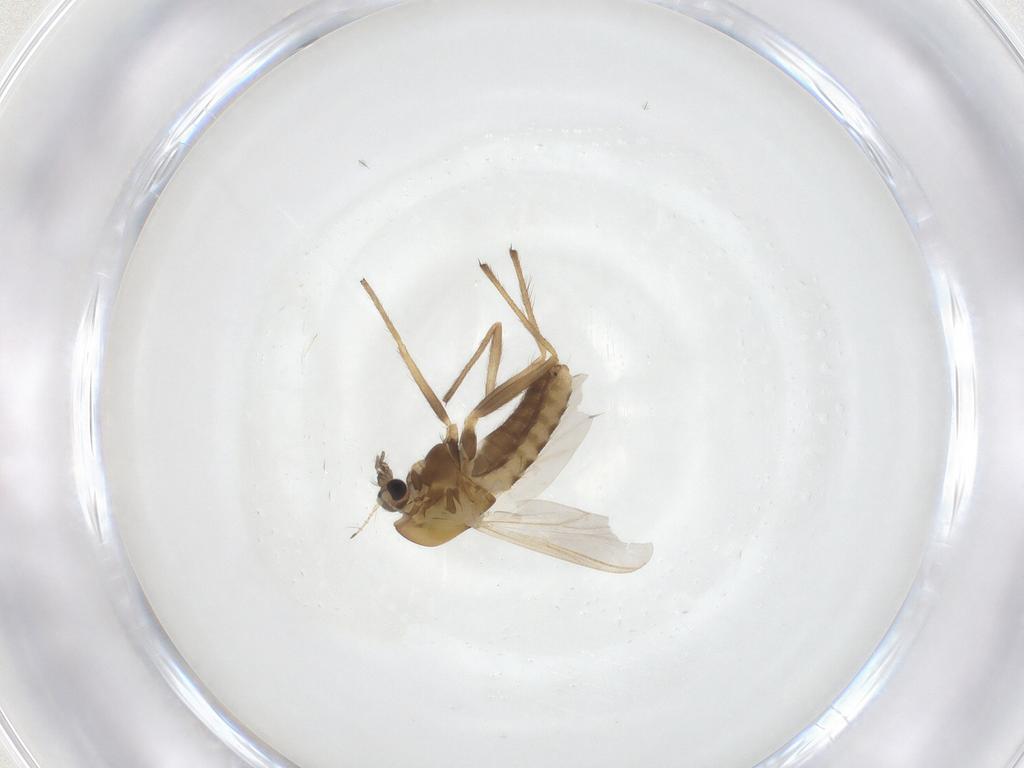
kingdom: Animalia
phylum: Arthropoda
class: Insecta
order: Diptera
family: Chironomidae
